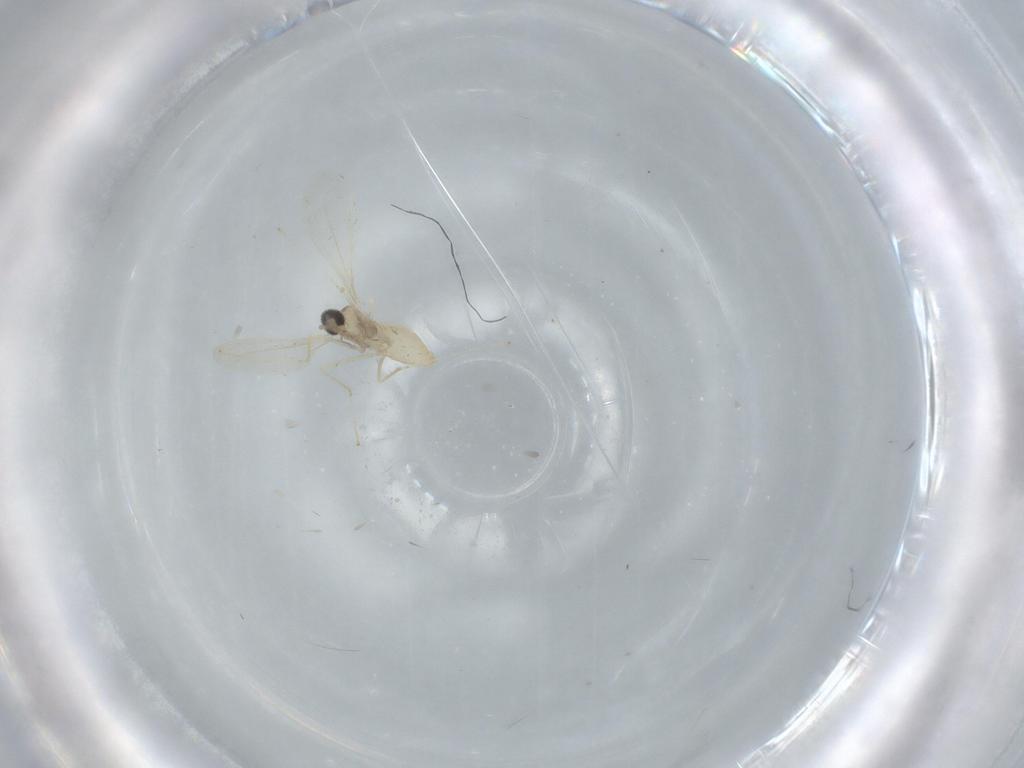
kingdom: Animalia
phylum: Arthropoda
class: Insecta
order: Diptera
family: Cecidomyiidae
